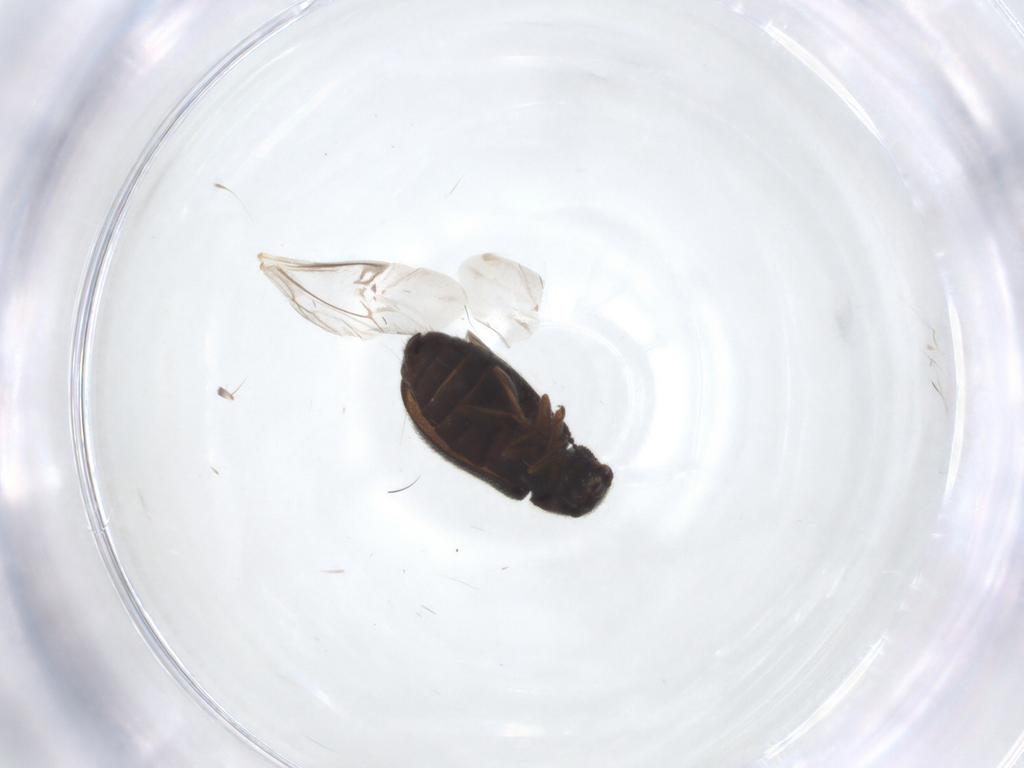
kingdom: Animalia
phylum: Arthropoda
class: Insecta
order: Coleoptera
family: Melyridae
